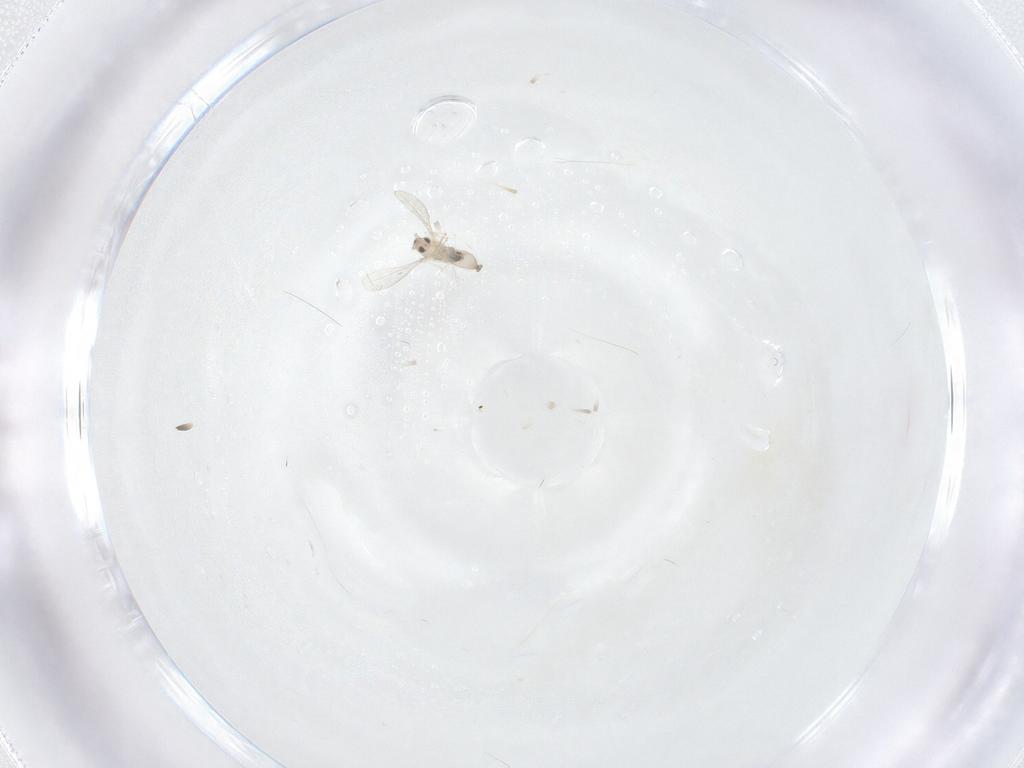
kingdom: Animalia
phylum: Arthropoda
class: Insecta
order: Diptera
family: Cecidomyiidae
